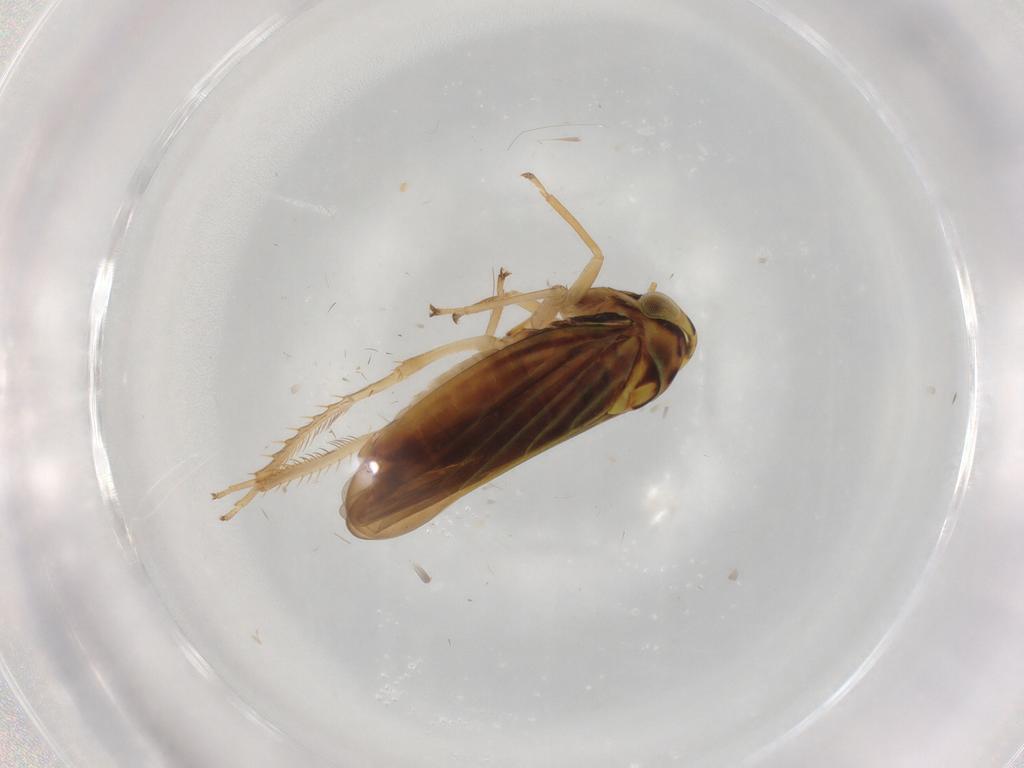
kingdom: Animalia
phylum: Arthropoda
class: Insecta
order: Hemiptera
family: Cicadellidae
